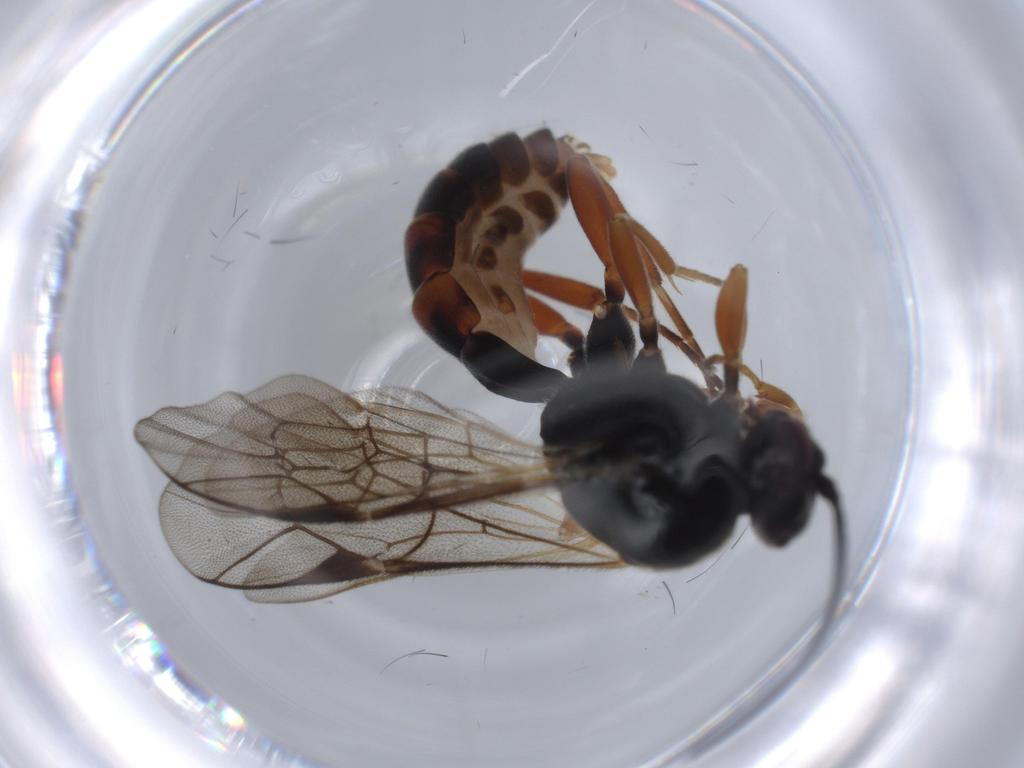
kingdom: Animalia
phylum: Arthropoda
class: Insecta
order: Hymenoptera
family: Ichneumonidae
